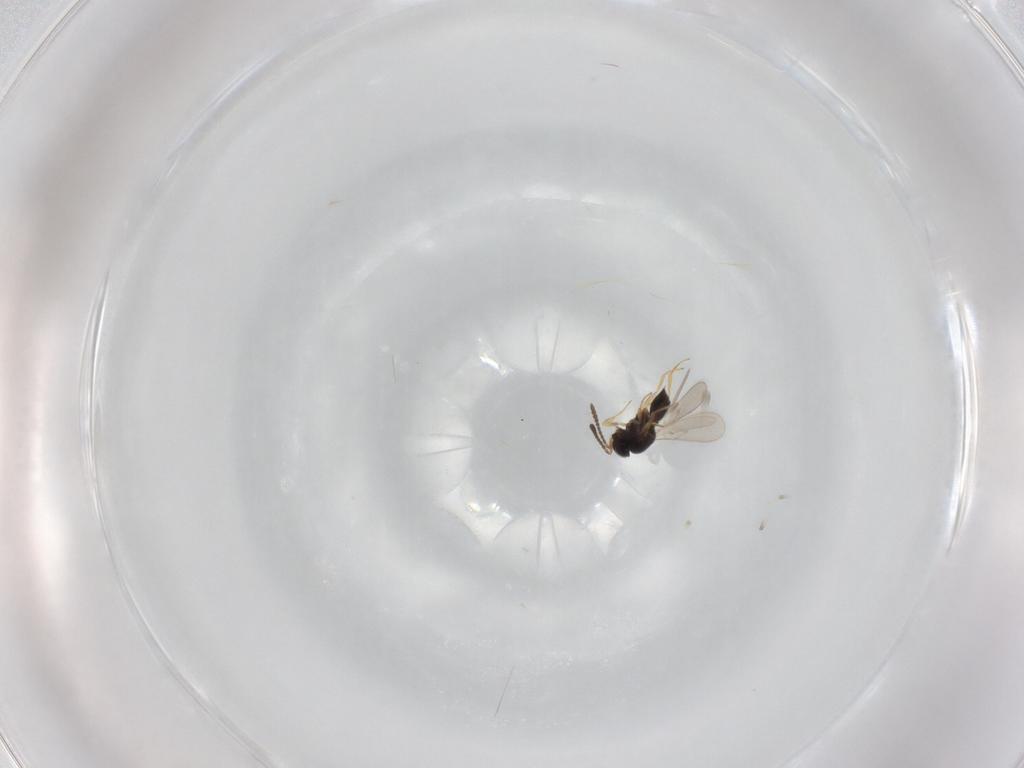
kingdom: Animalia
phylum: Arthropoda
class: Insecta
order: Hymenoptera
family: Scelionidae
